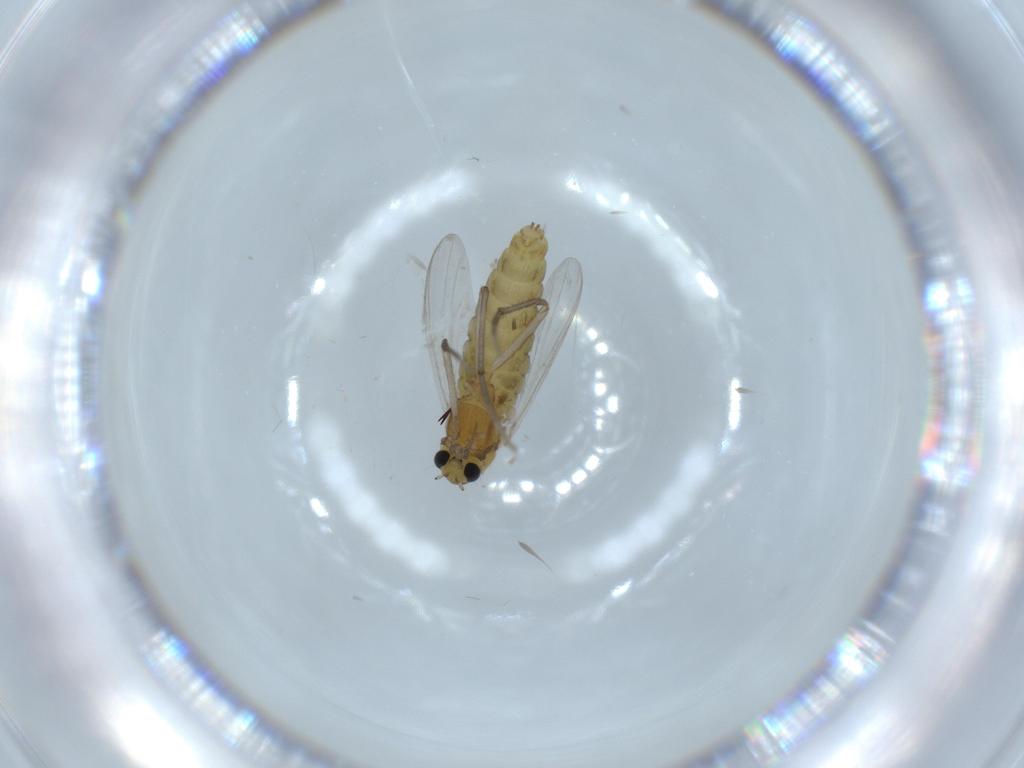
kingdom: Animalia
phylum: Arthropoda
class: Insecta
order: Diptera
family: Chironomidae
